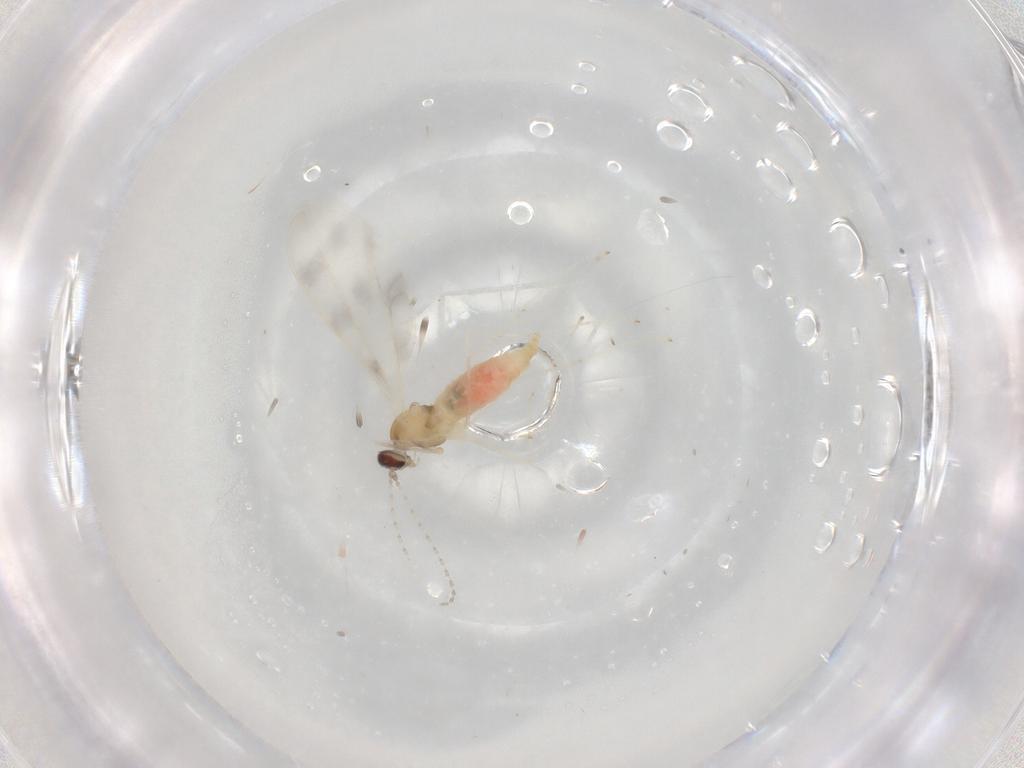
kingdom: Animalia
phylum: Arthropoda
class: Insecta
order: Diptera
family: Cecidomyiidae
